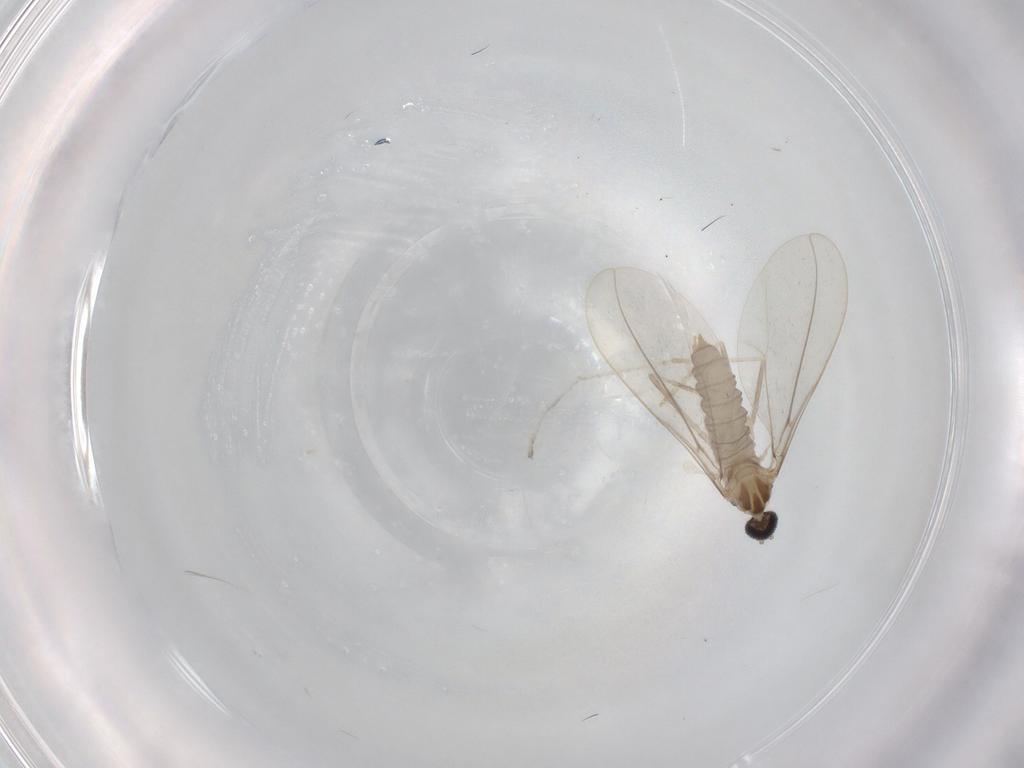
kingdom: Animalia
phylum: Arthropoda
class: Insecta
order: Diptera
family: Cecidomyiidae
